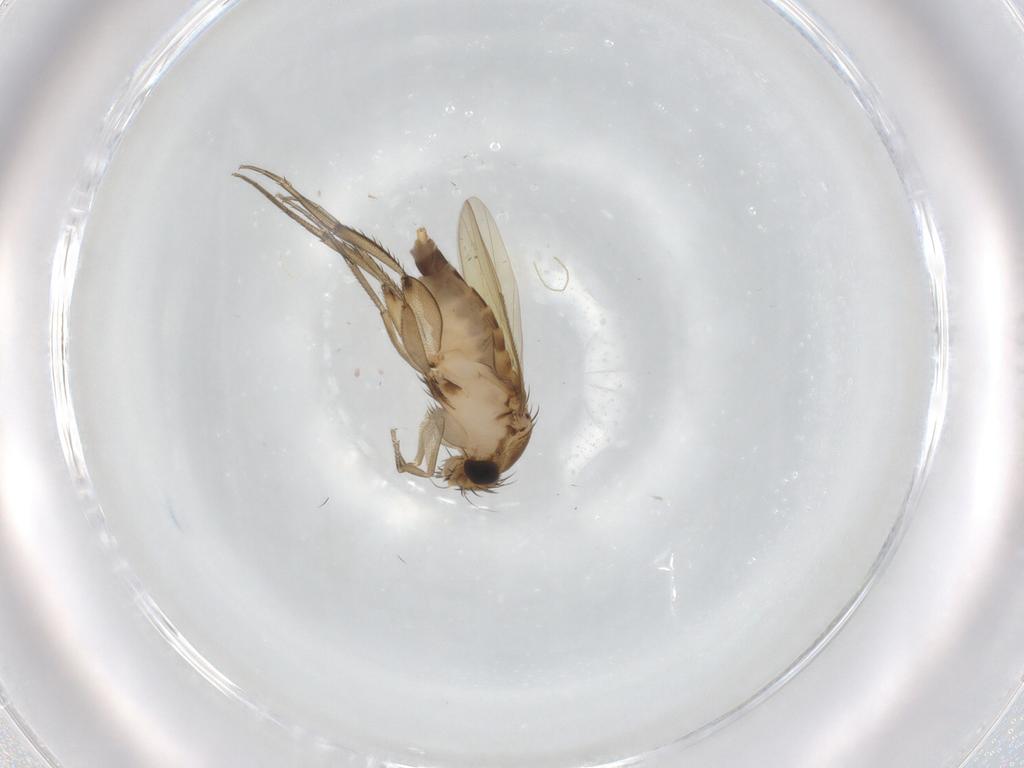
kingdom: Animalia
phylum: Arthropoda
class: Insecta
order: Diptera
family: Phoridae
